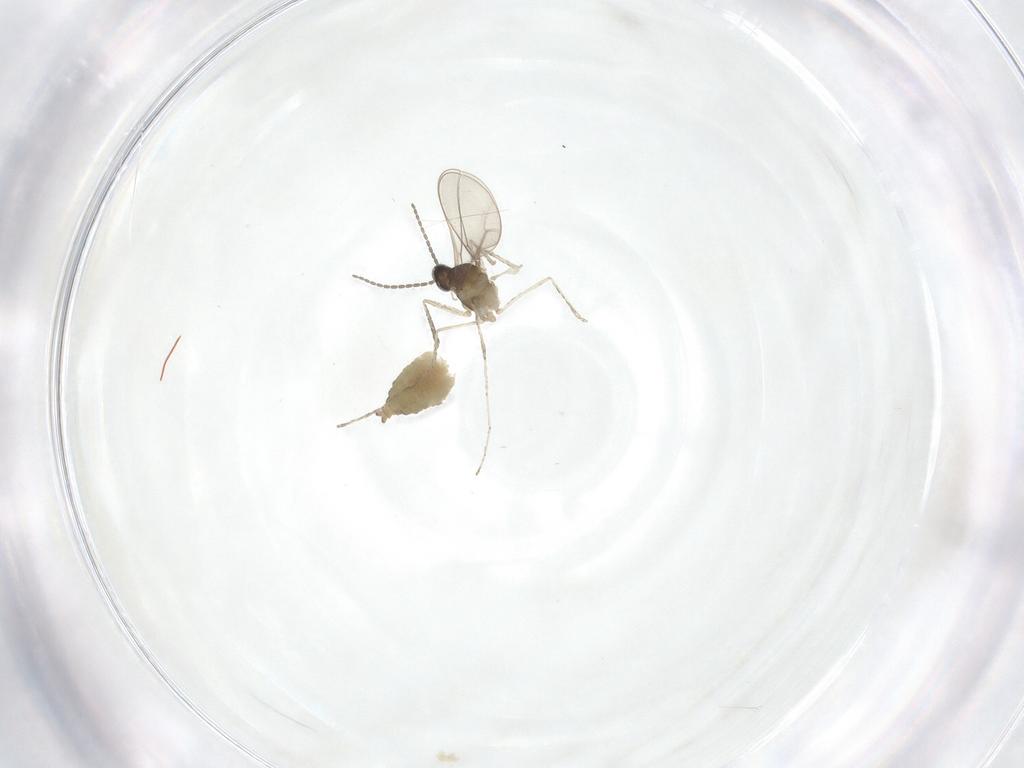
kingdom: Animalia
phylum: Arthropoda
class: Insecta
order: Diptera
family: Cecidomyiidae
